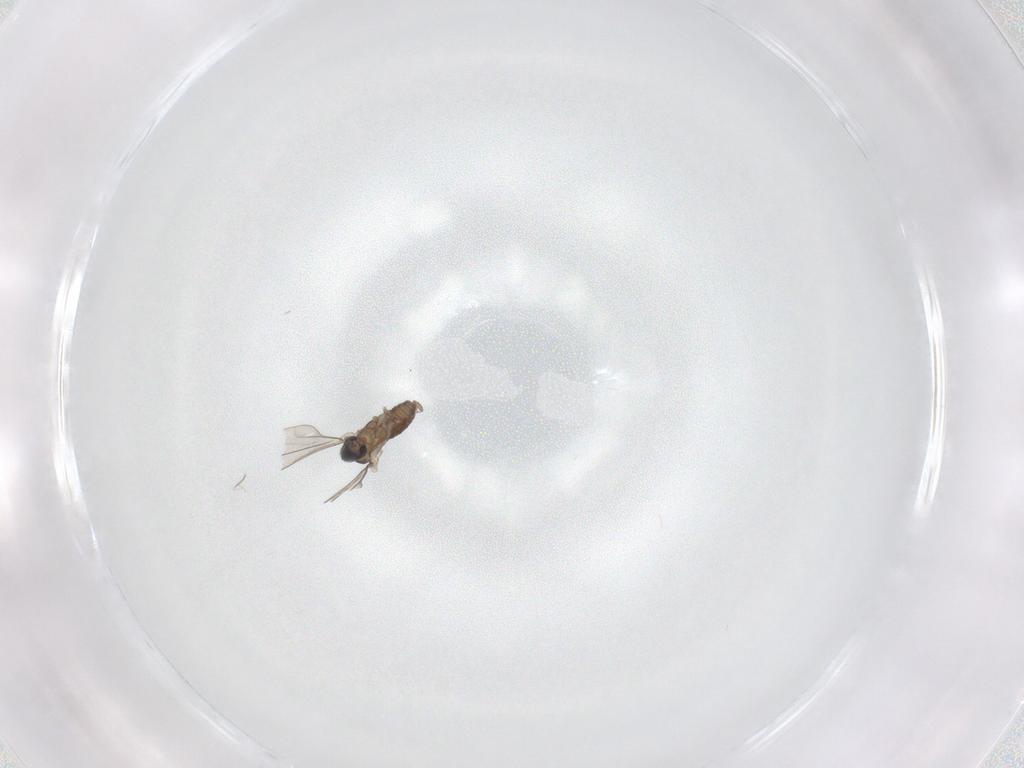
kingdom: Animalia
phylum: Arthropoda
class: Insecta
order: Diptera
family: Cecidomyiidae
